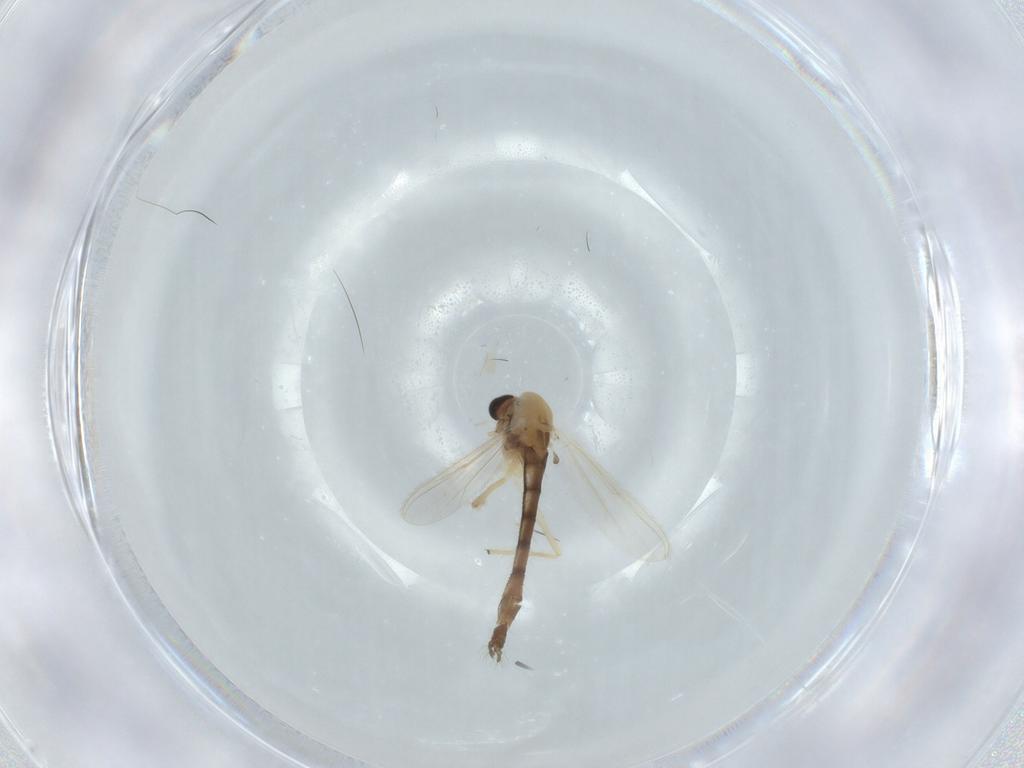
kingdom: Animalia
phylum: Arthropoda
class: Insecta
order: Diptera
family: Chironomidae
